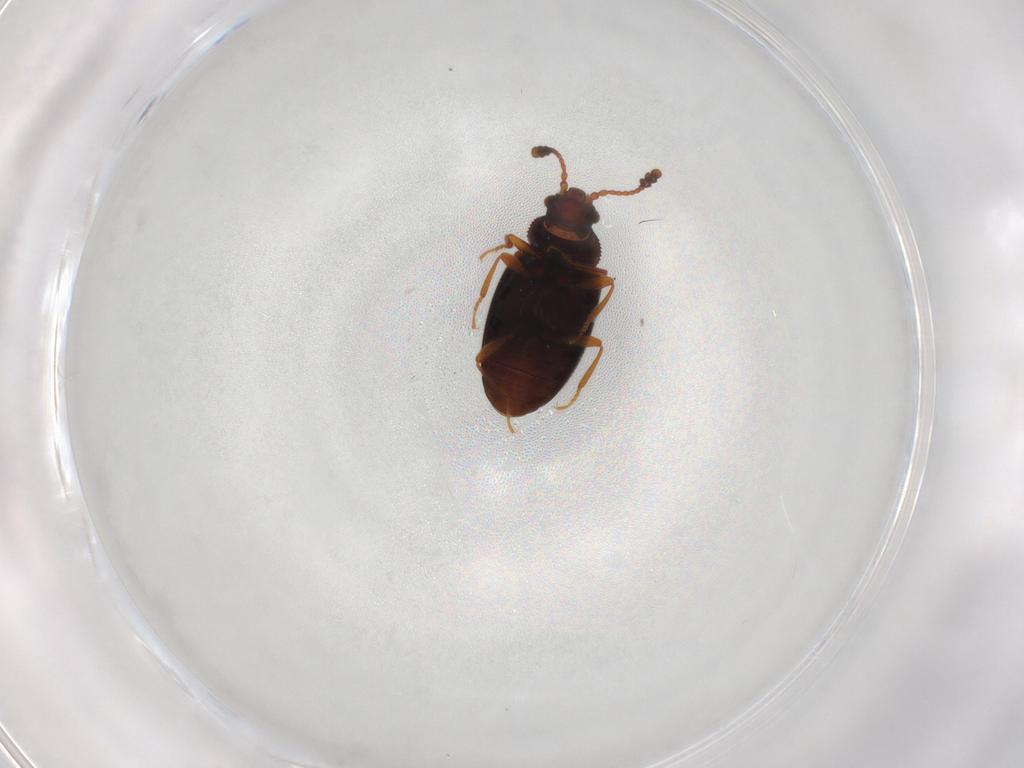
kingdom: Animalia
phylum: Arthropoda
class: Insecta
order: Coleoptera
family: Cryptophagidae
